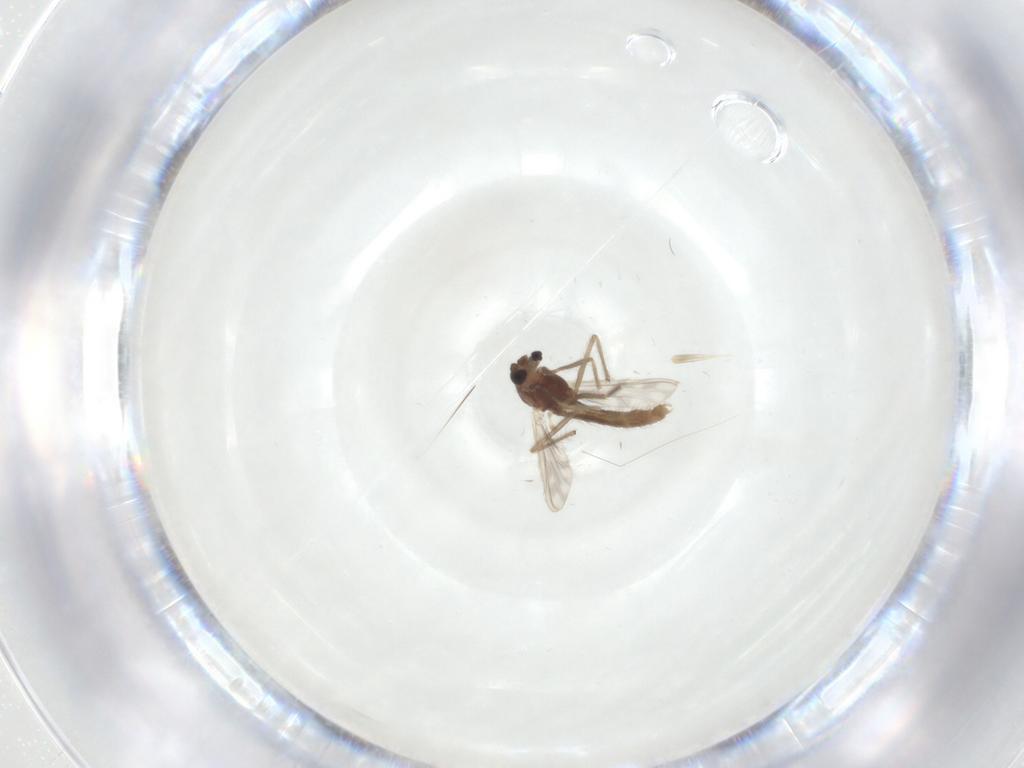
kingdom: Animalia
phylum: Arthropoda
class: Insecta
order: Diptera
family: Chironomidae
